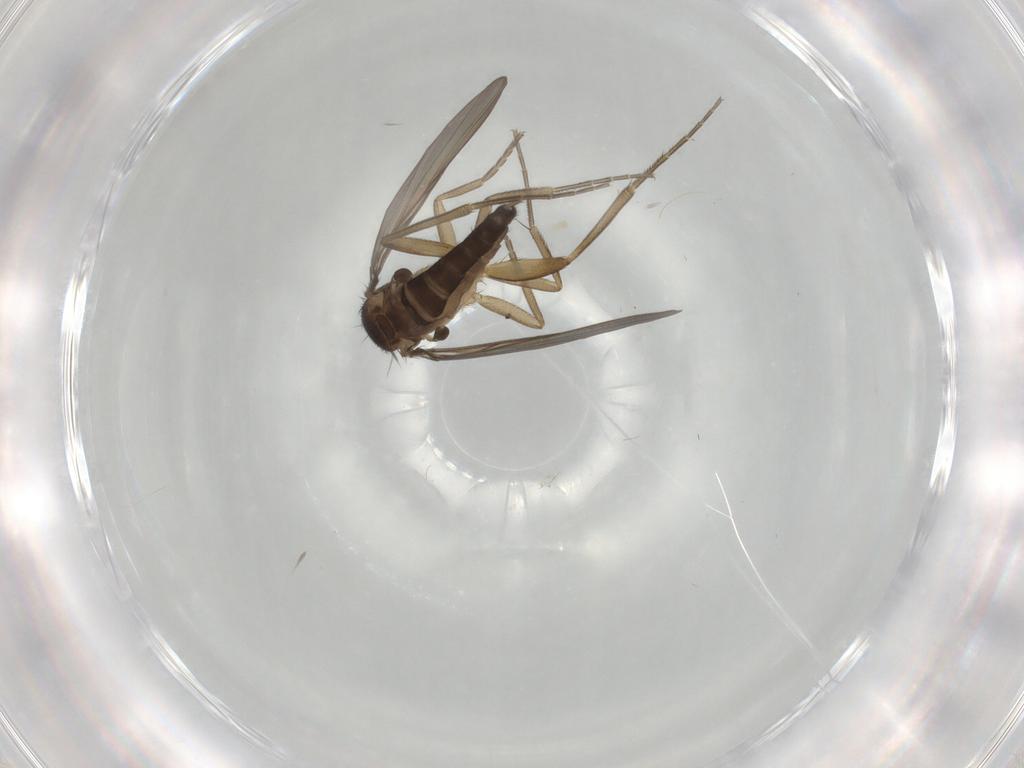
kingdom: Animalia
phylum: Arthropoda
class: Insecta
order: Diptera
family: Phoridae
